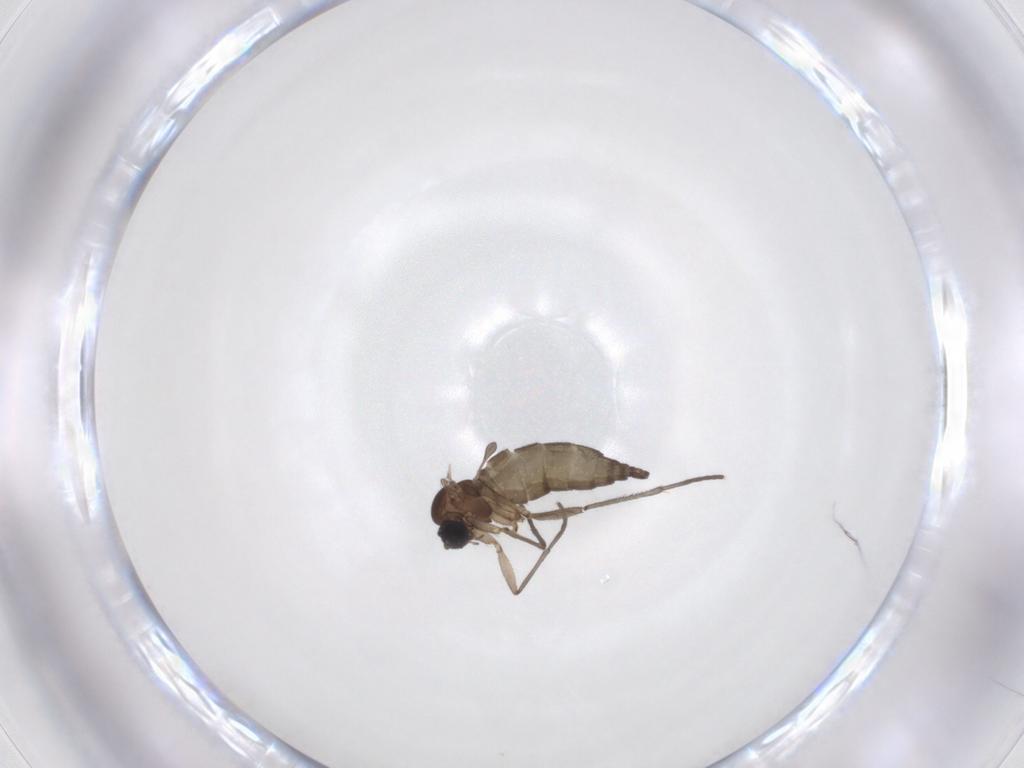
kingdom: Animalia
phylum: Arthropoda
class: Insecta
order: Diptera
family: Sciaridae
